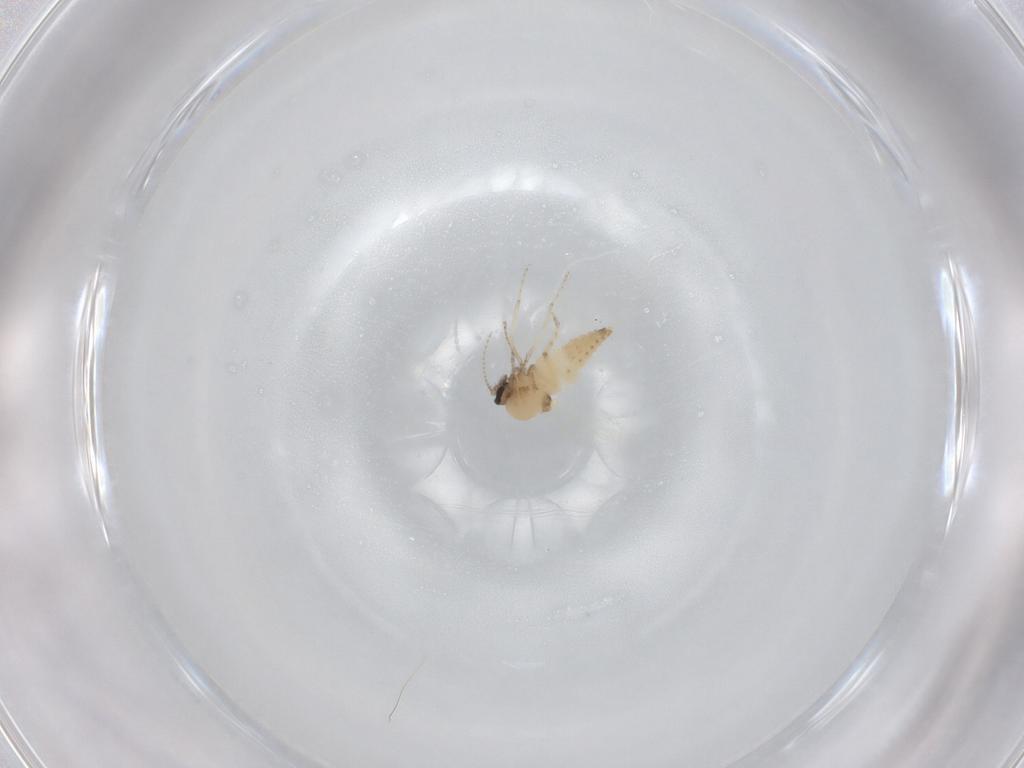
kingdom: Animalia
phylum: Arthropoda
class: Insecta
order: Diptera
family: Ceratopogonidae
